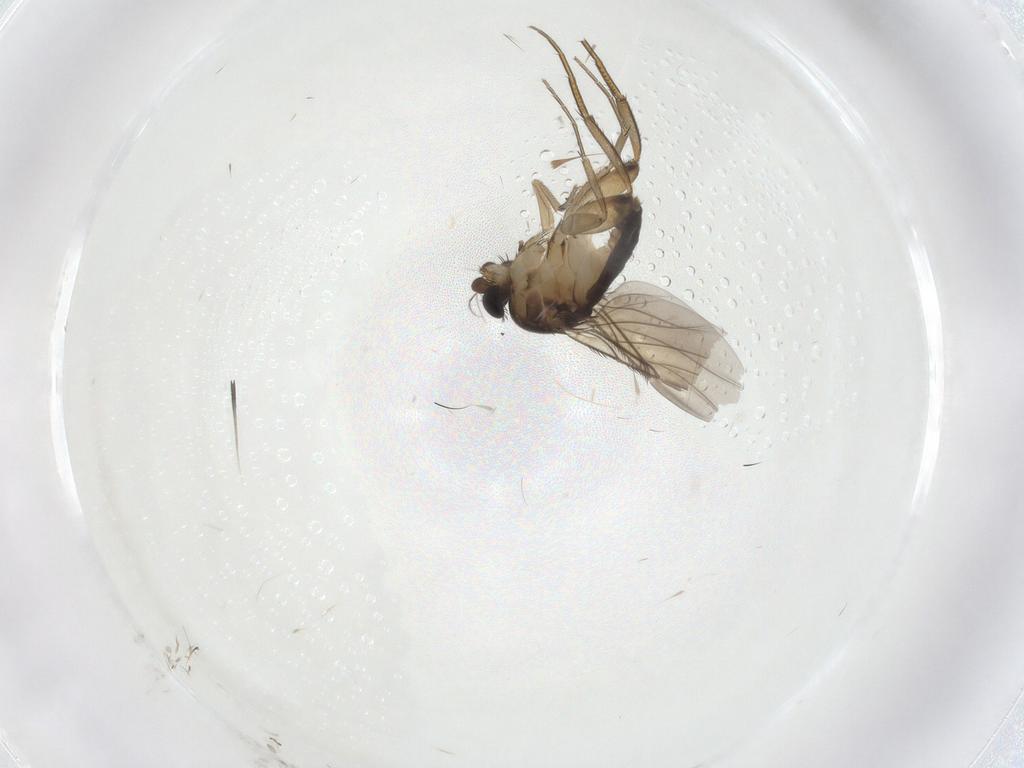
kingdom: Animalia
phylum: Arthropoda
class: Insecta
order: Diptera
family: Phoridae
